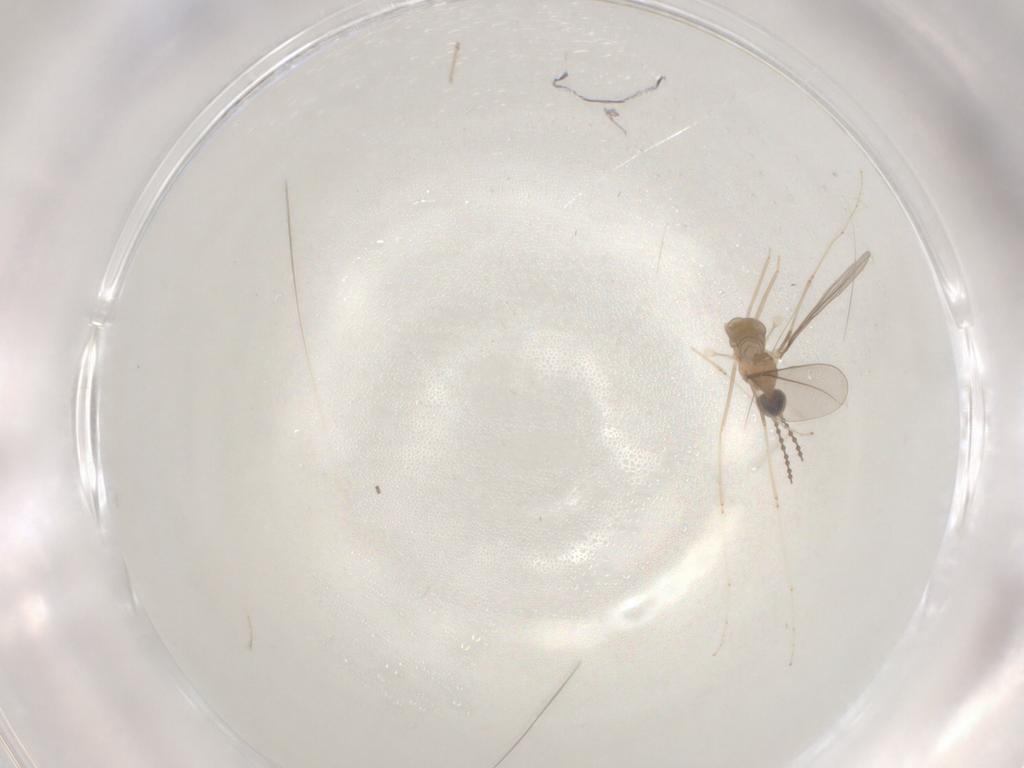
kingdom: Animalia
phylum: Arthropoda
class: Insecta
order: Diptera
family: Cecidomyiidae
